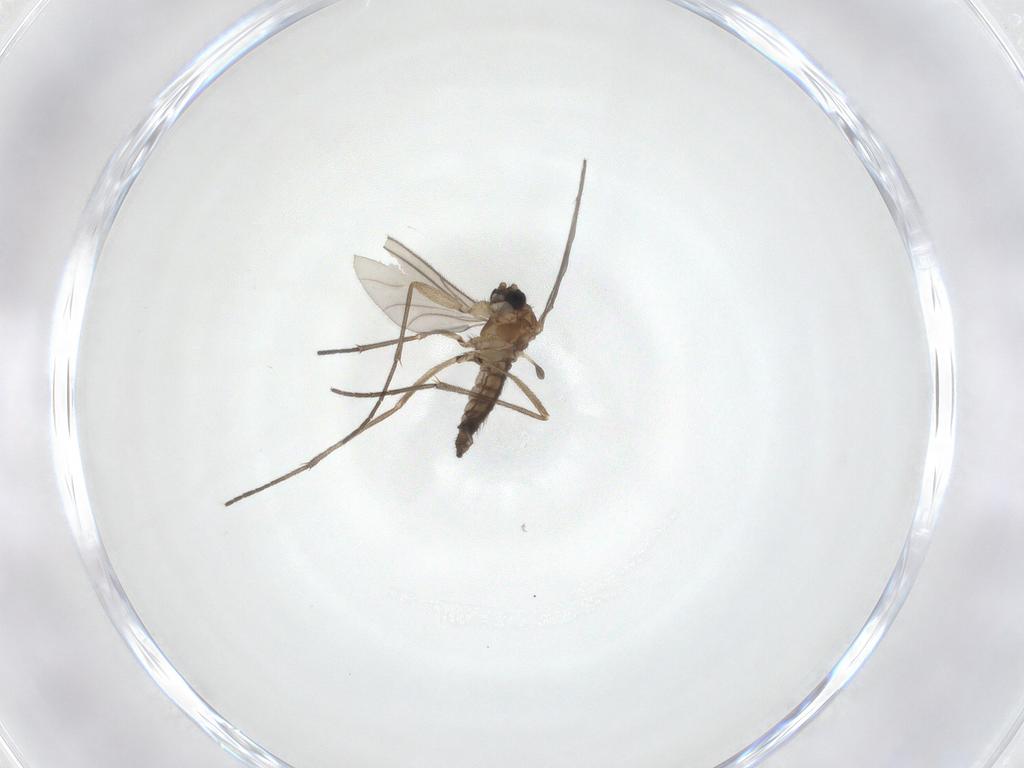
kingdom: Animalia
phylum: Arthropoda
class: Insecta
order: Diptera
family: Sciaridae
